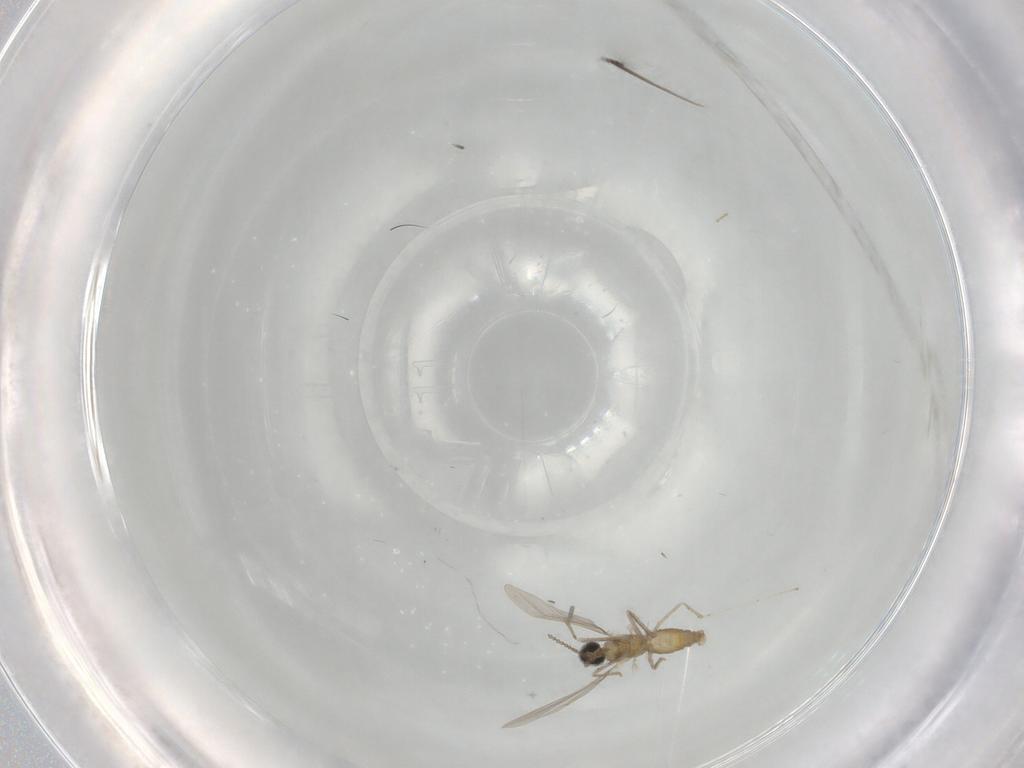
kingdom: Animalia
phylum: Arthropoda
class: Insecta
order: Diptera
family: Cecidomyiidae
